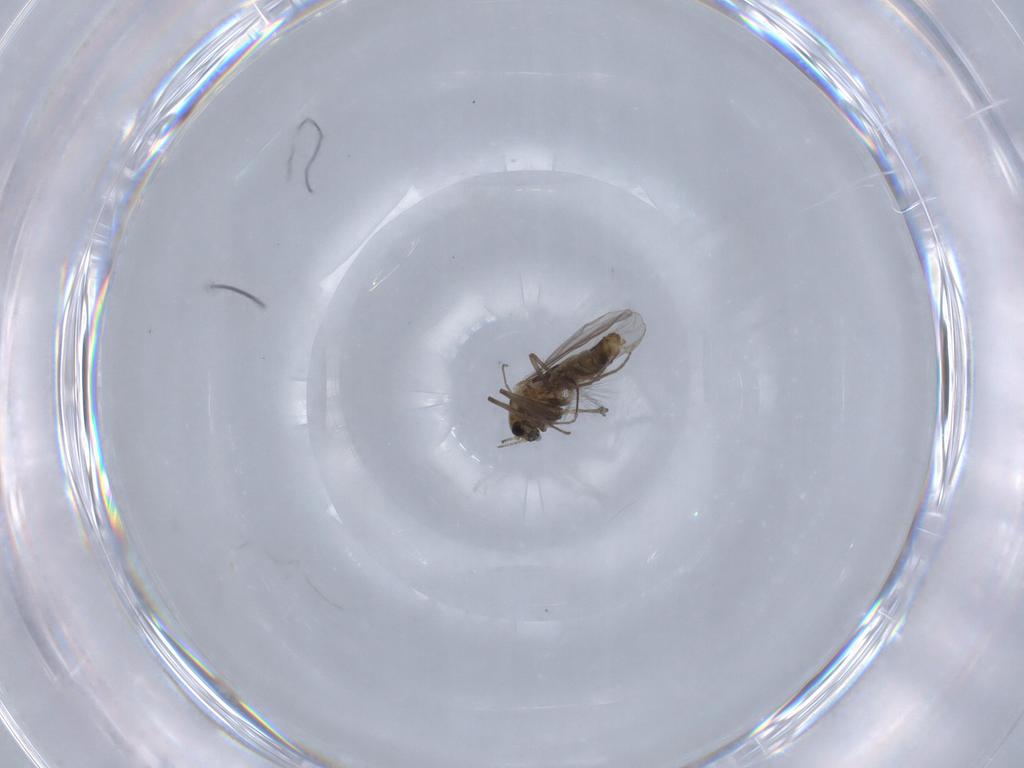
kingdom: Animalia
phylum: Arthropoda
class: Insecta
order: Diptera
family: Chironomidae
